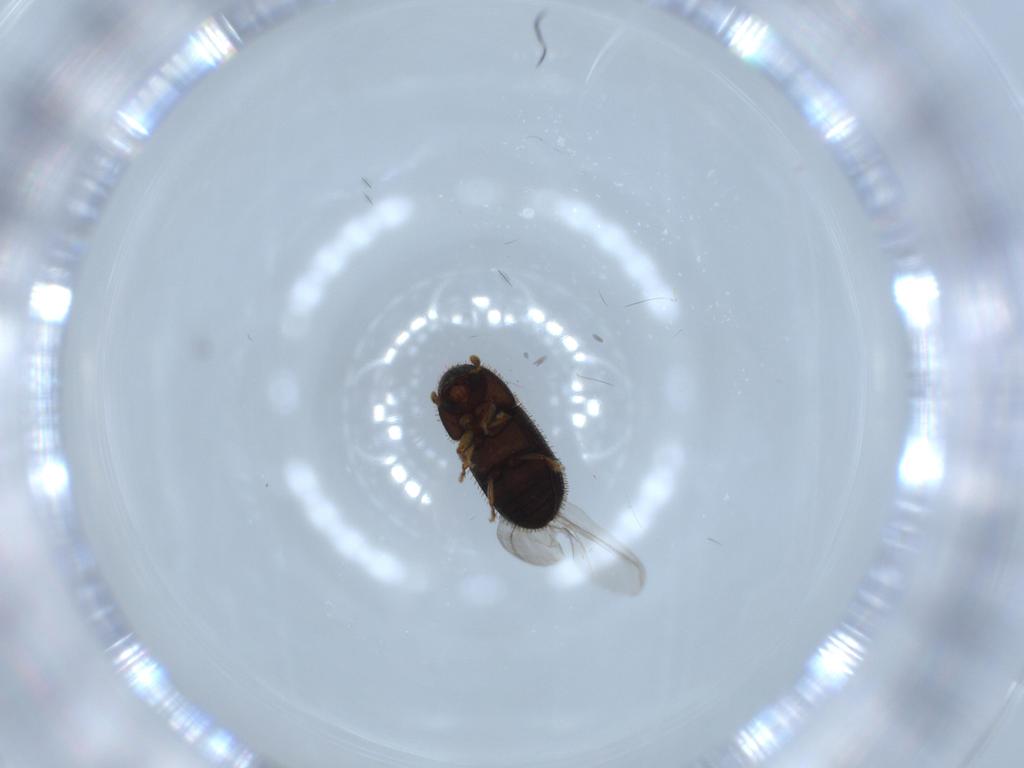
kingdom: Animalia
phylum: Arthropoda
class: Insecta
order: Coleoptera
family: Curculionidae
